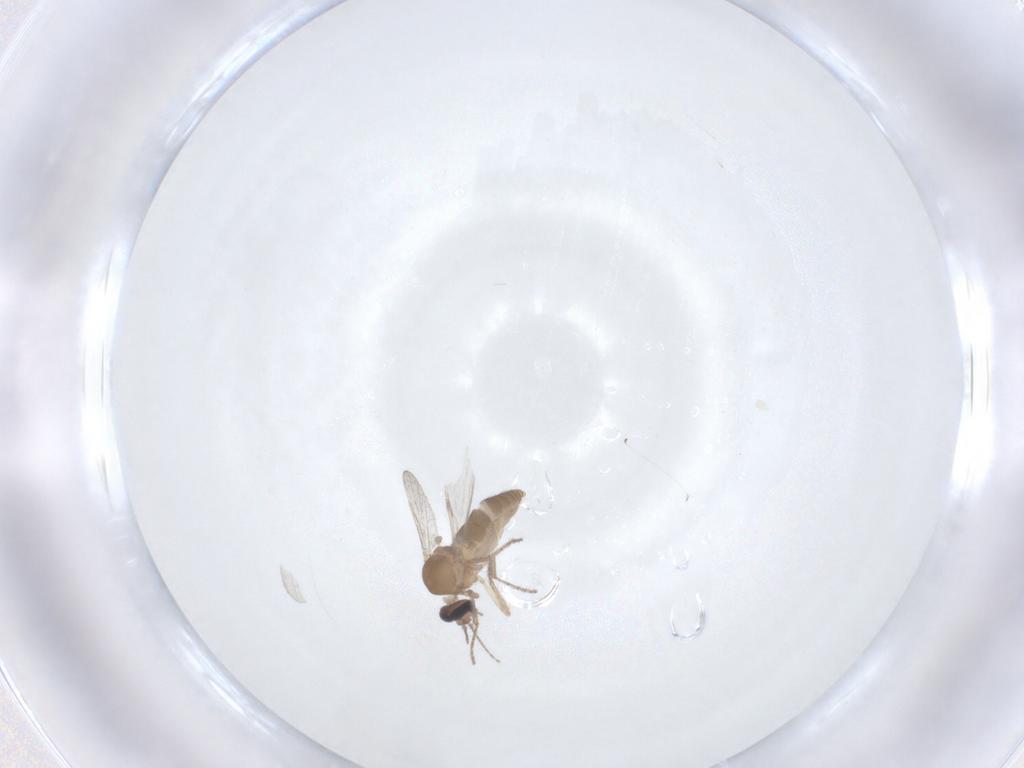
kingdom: Animalia
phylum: Arthropoda
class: Insecta
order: Diptera
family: Ceratopogonidae
